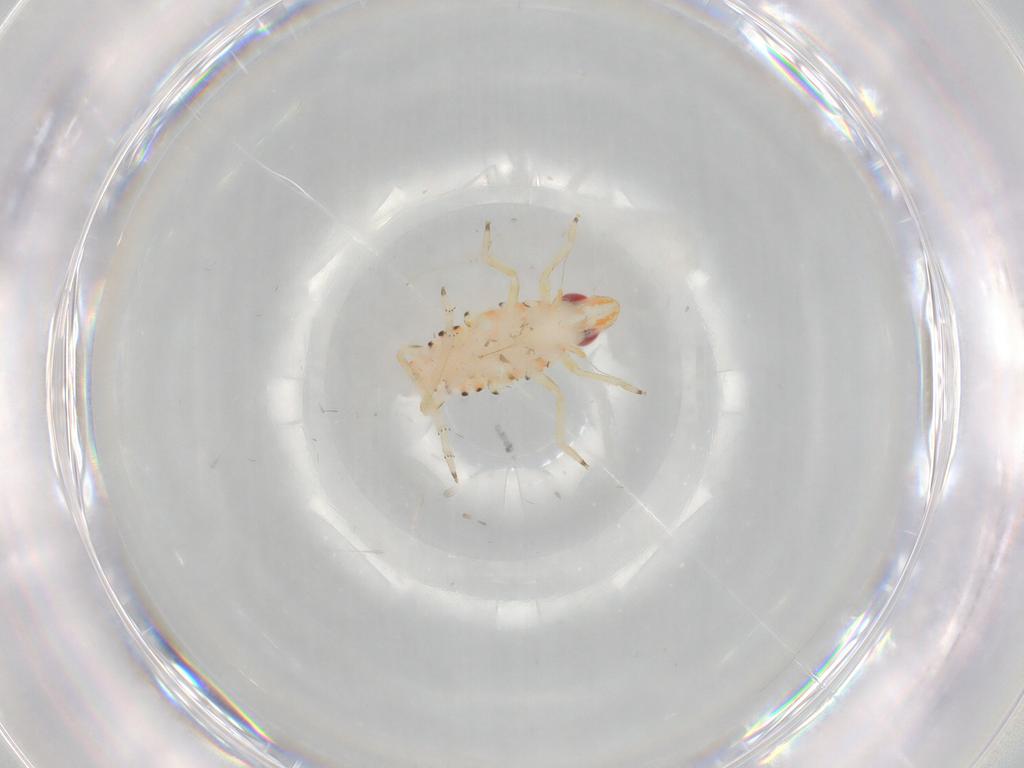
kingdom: Animalia
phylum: Arthropoda
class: Insecta
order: Hemiptera
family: Tropiduchidae
